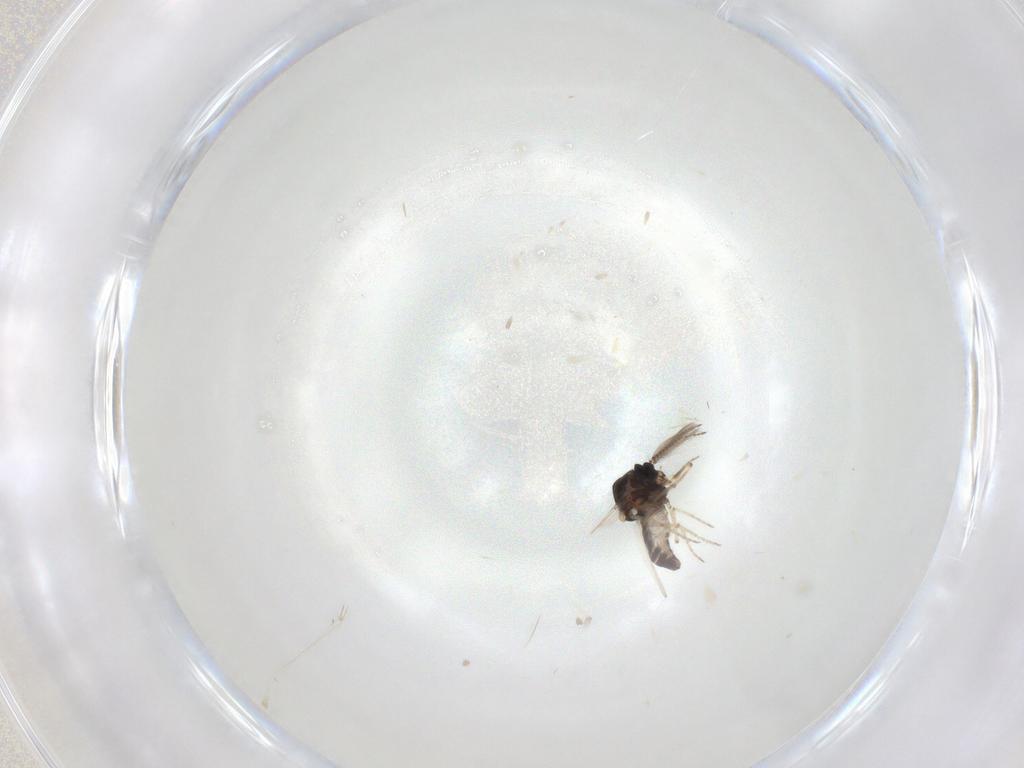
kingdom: Animalia
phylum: Arthropoda
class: Insecta
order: Diptera
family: Ceratopogonidae
